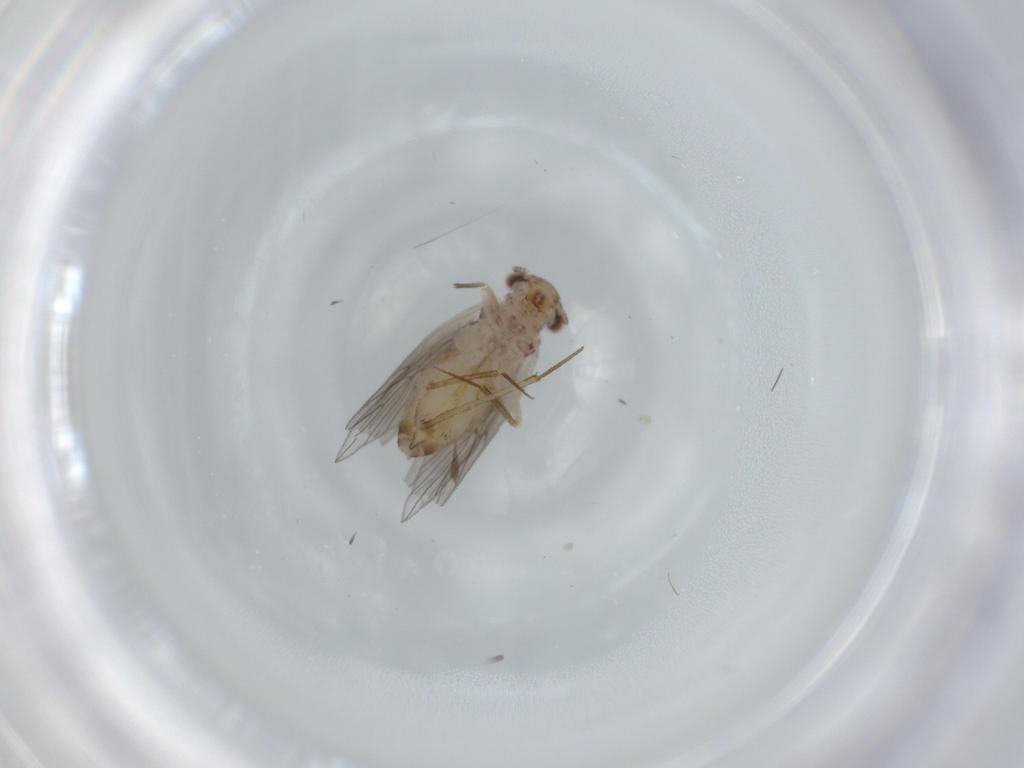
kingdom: Animalia
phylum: Arthropoda
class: Insecta
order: Psocodea
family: Lepidopsocidae
